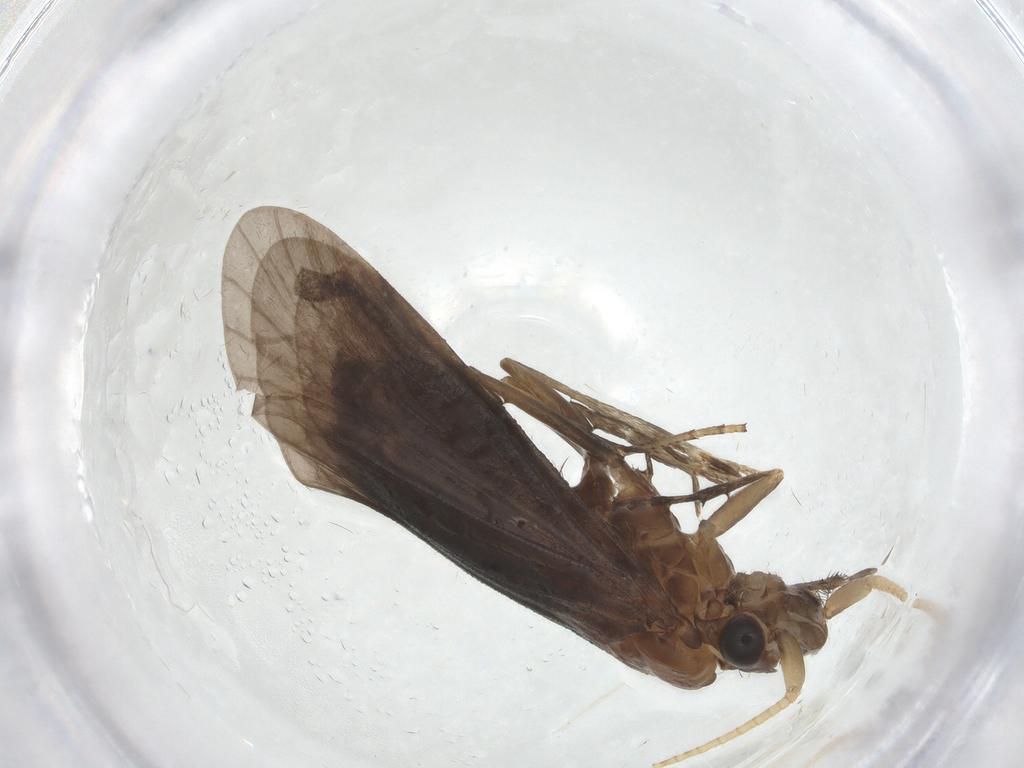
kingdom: Animalia
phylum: Arthropoda
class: Insecta
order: Trichoptera
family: Helicopsychidae
